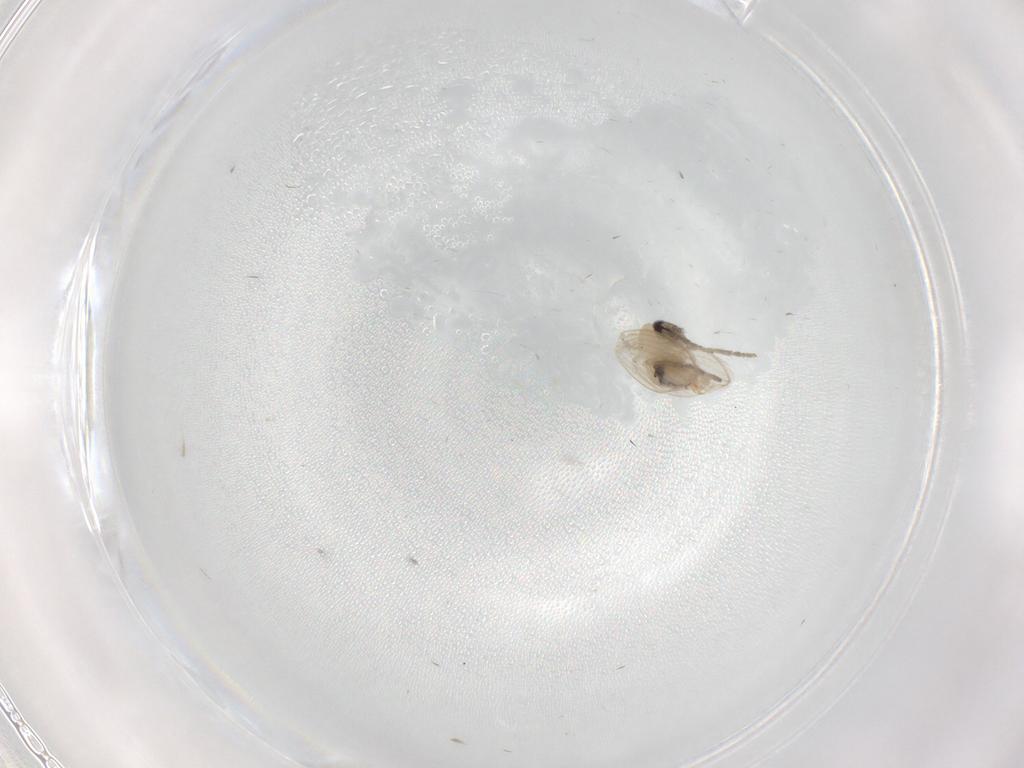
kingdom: Animalia
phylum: Arthropoda
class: Insecta
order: Diptera
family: Psychodidae
